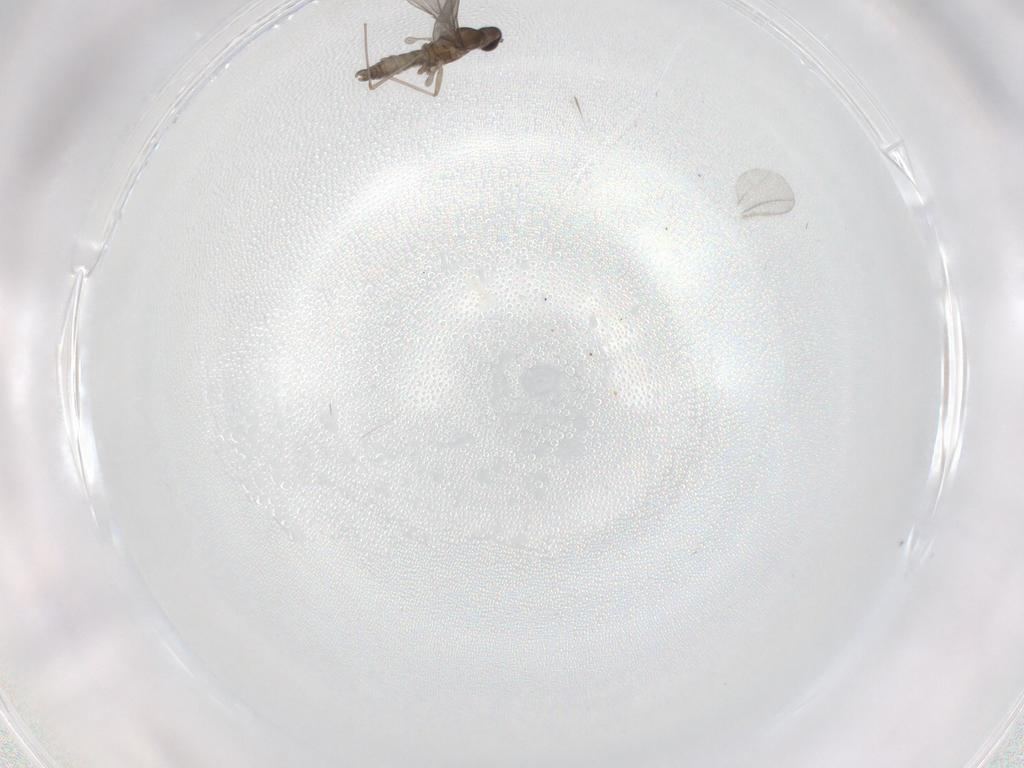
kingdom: Animalia
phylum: Arthropoda
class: Insecta
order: Diptera
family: Cecidomyiidae
